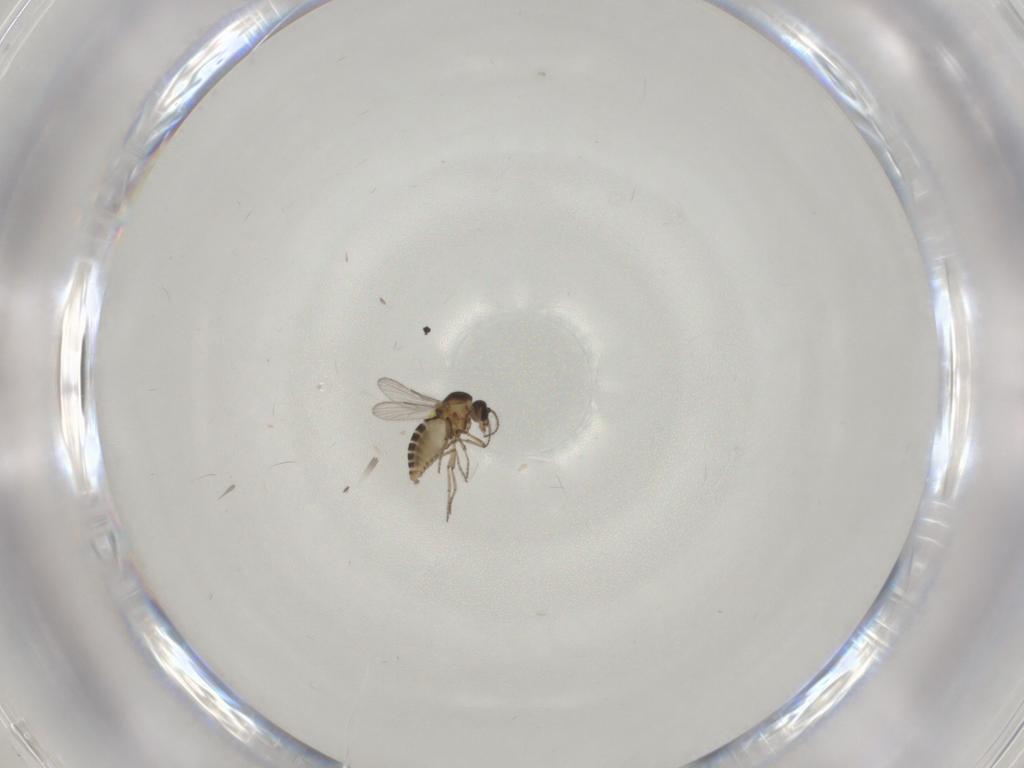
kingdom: Animalia
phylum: Arthropoda
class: Insecta
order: Diptera
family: Ceratopogonidae
